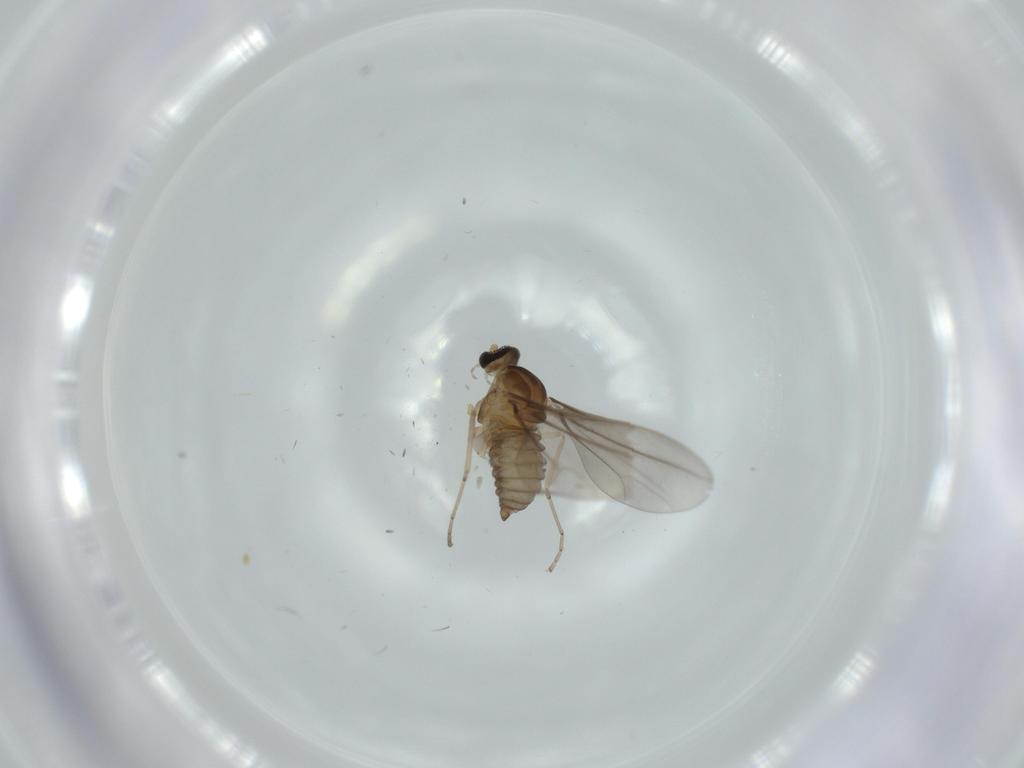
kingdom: Animalia
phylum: Arthropoda
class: Insecta
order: Diptera
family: Cecidomyiidae
